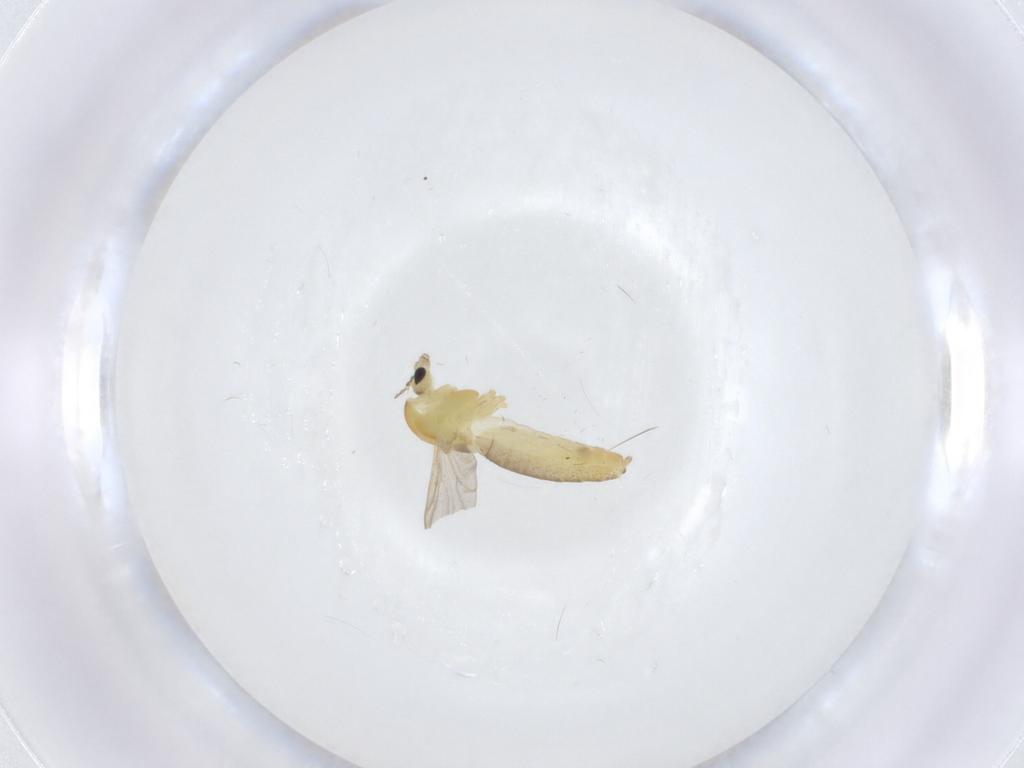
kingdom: Animalia
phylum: Arthropoda
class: Insecta
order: Diptera
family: Chironomidae
